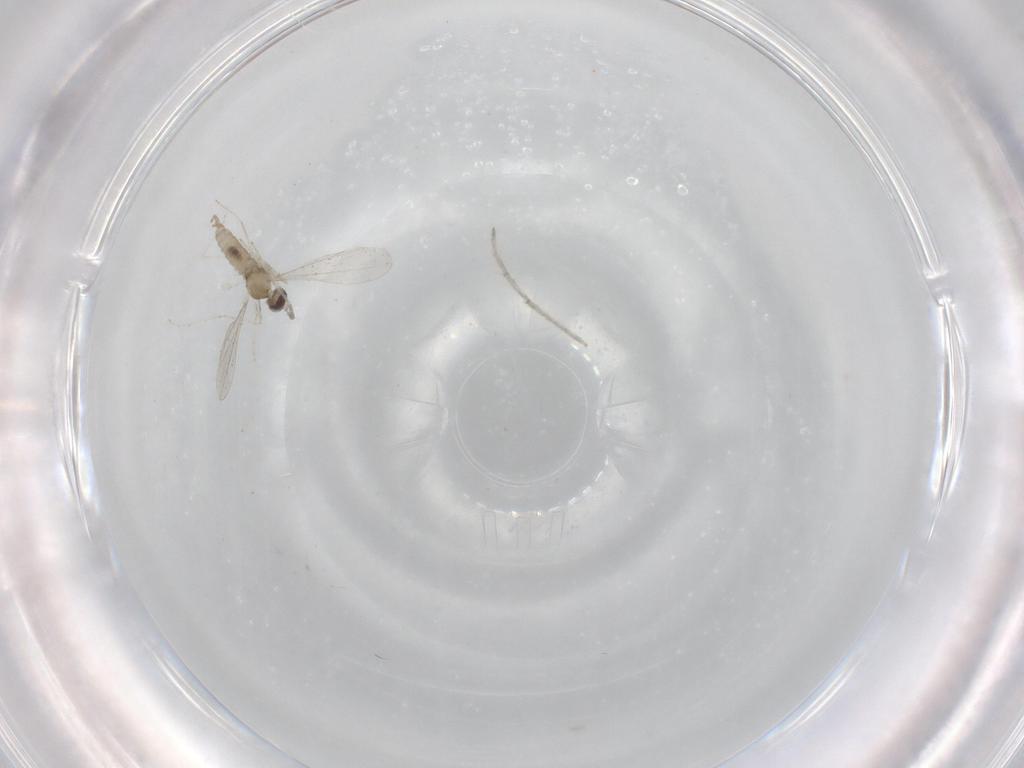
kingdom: Animalia
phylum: Arthropoda
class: Insecta
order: Diptera
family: Chironomidae
